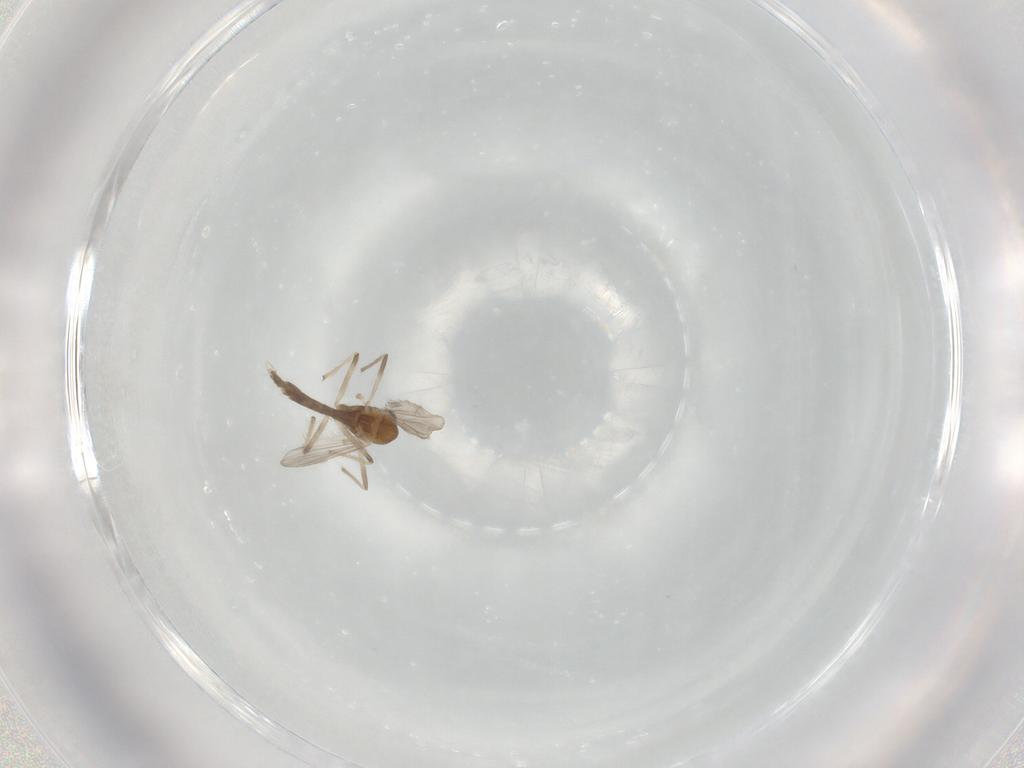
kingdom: Animalia
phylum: Arthropoda
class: Insecta
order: Diptera
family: Chironomidae
